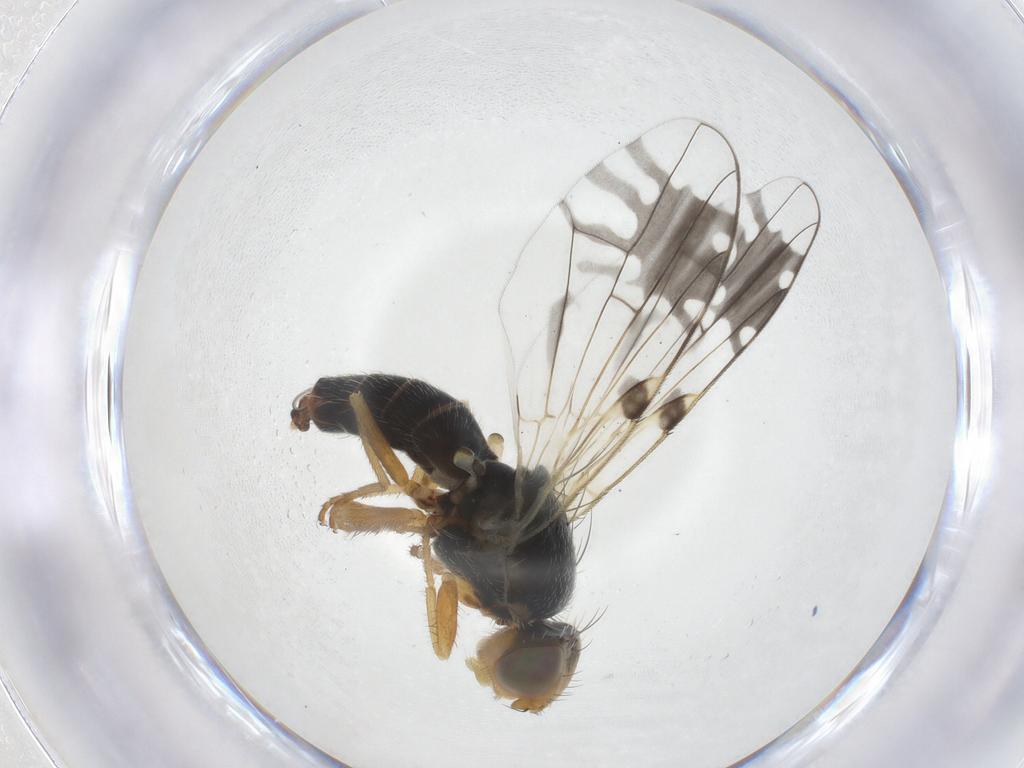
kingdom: Animalia
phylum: Arthropoda
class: Insecta
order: Diptera
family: Tephritidae
